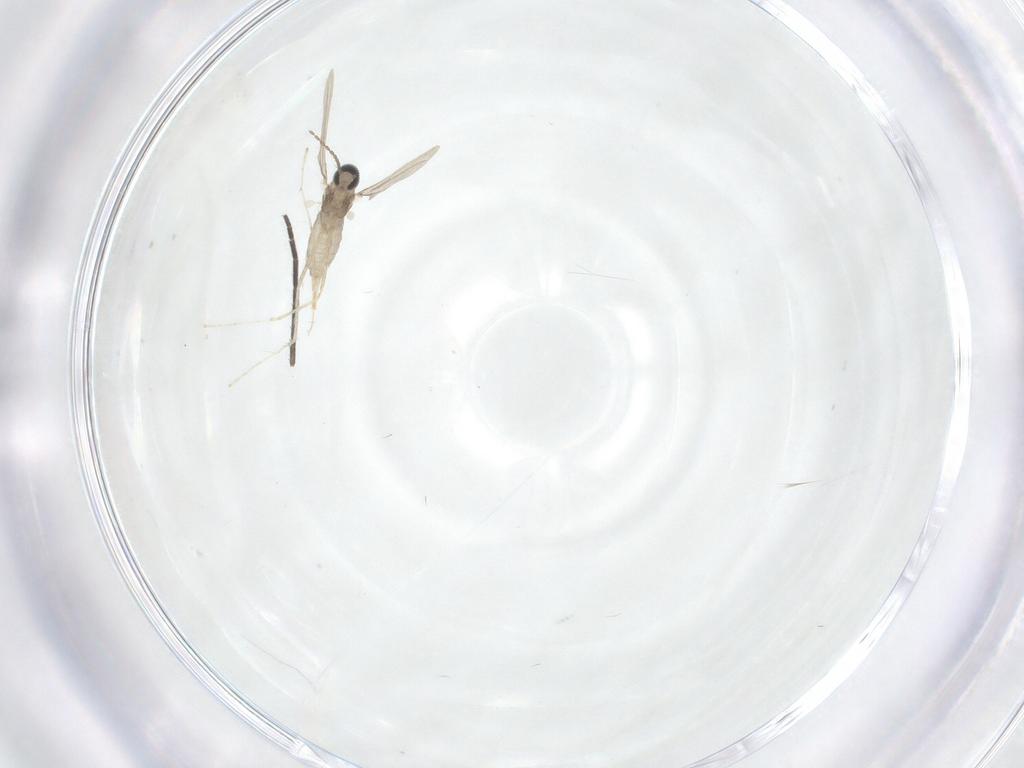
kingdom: Animalia
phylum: Arthropoda
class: Insecta
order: Diptera
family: Sciaridae
